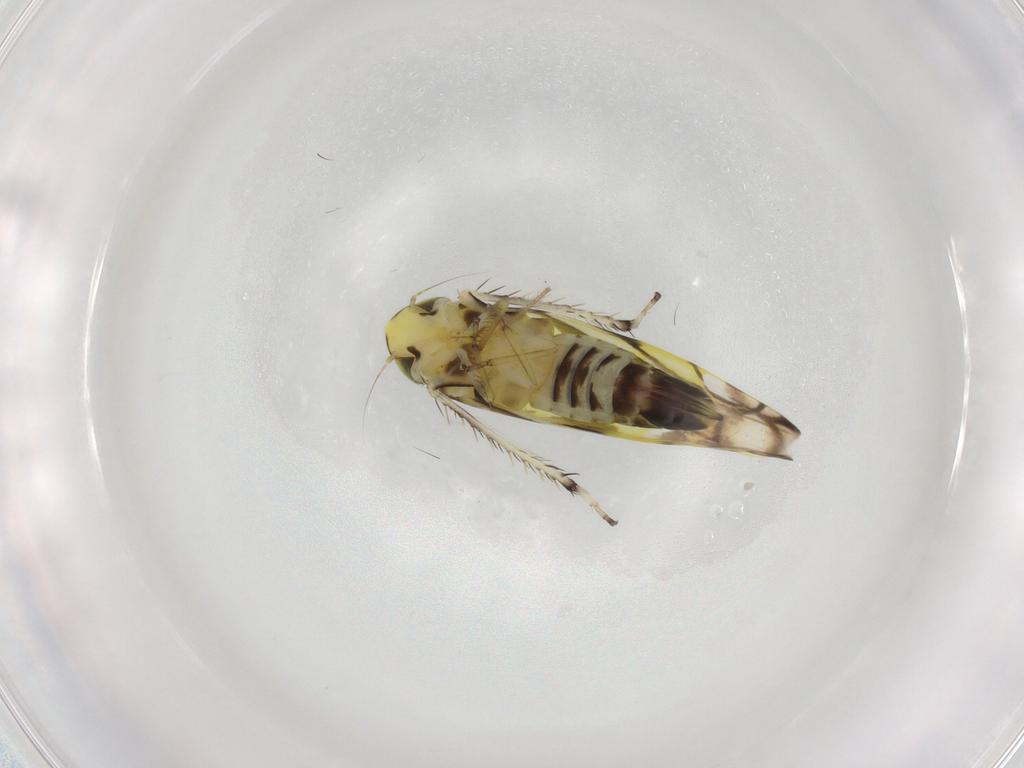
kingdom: Animalia
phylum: Arthropoda
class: Insecta
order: Hemiptera
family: Cicadellidae
